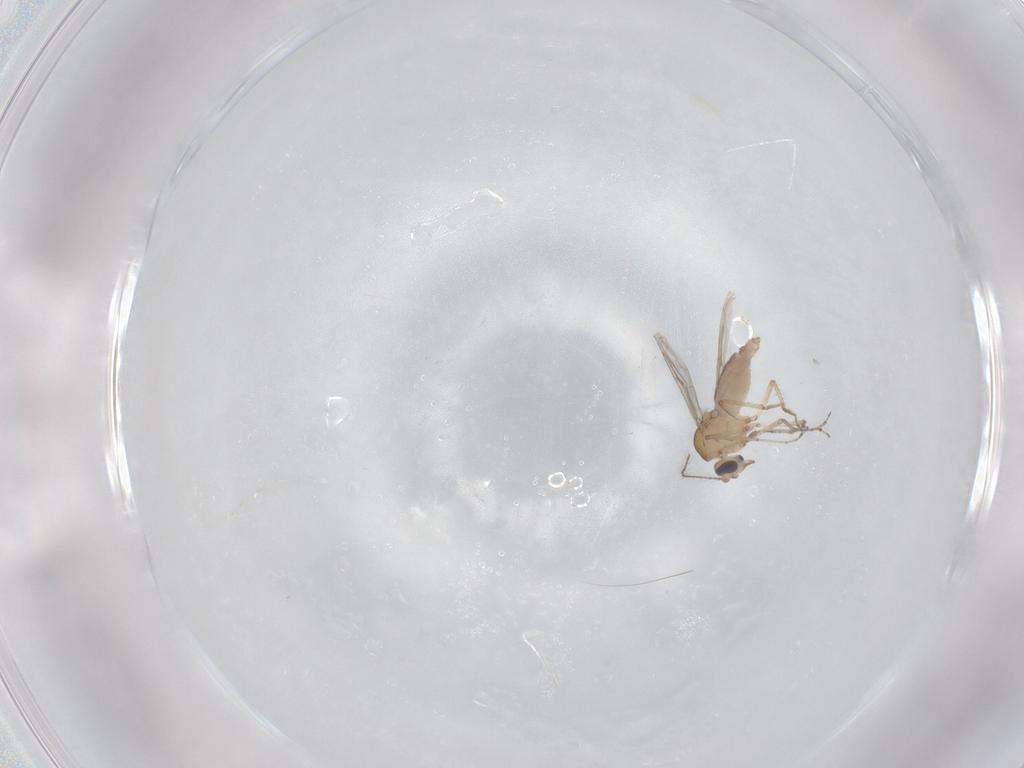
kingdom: Animalia
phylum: Arthropoda
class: Insecta
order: Diptera
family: Ceratopogonidae
